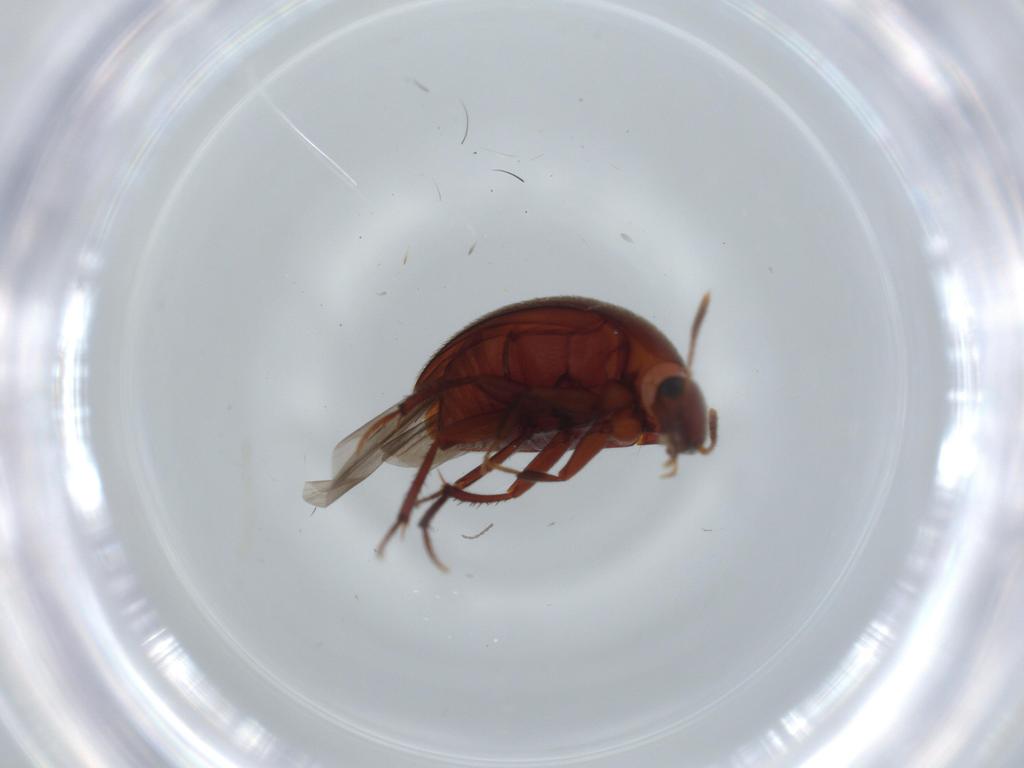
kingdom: Animalia
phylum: Arthropoda
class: Insecta
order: Coleoptera
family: Leiodidae
